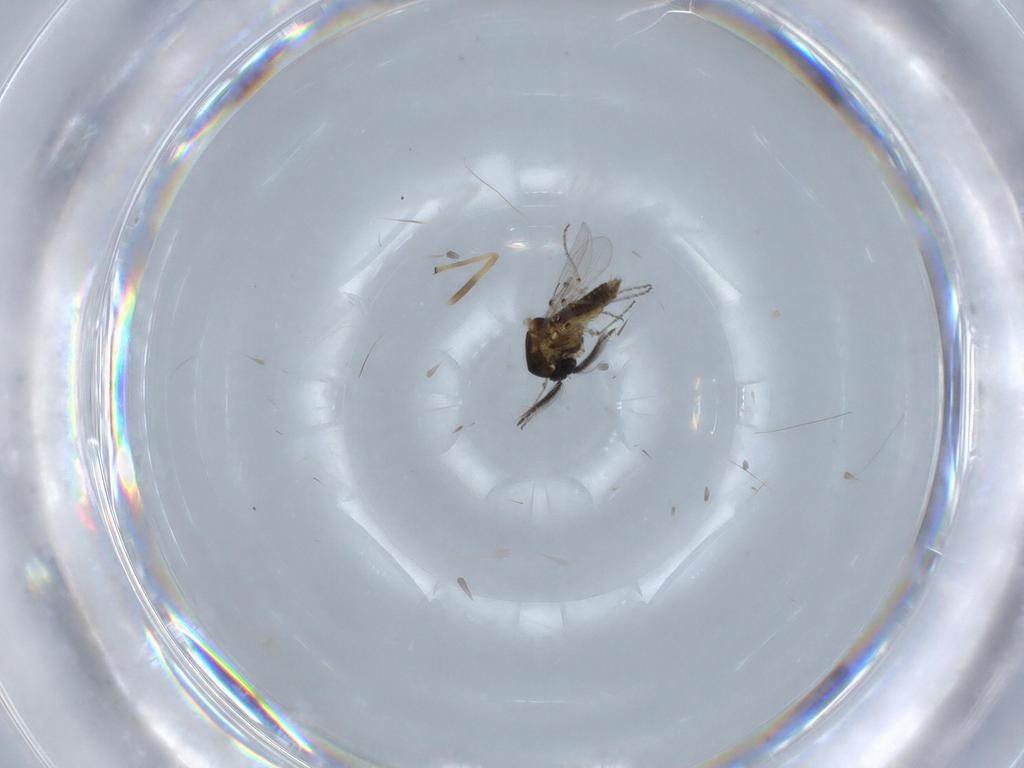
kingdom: Animalia
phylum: Arthropoda
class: Insecta
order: Diptera
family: Ceratopogonidae
